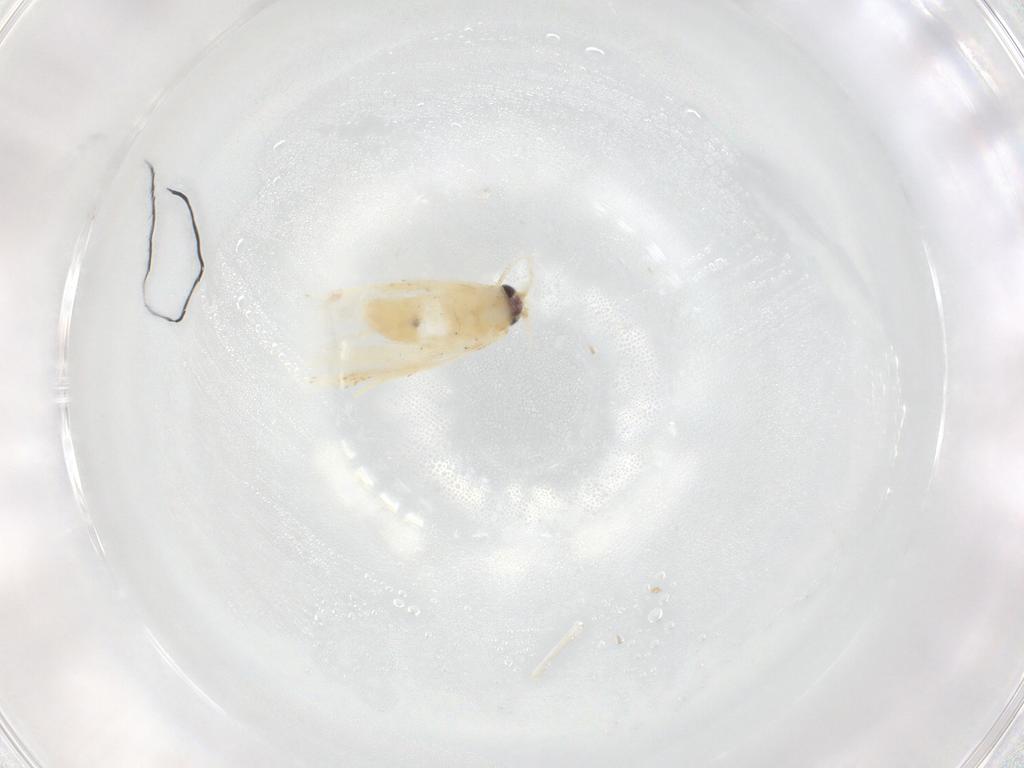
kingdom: Animalia
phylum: Arthropoda
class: Insecta
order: Lepidoptera
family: Nepticulidae
